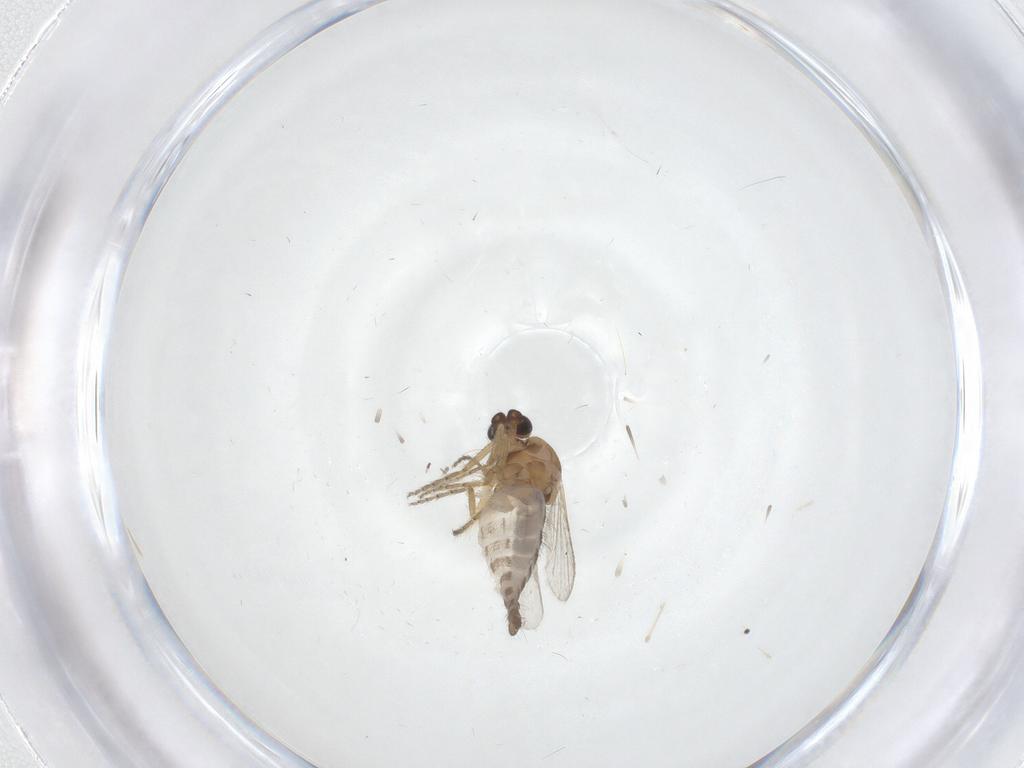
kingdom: Animalia
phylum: Arthropoda
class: Insecta
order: Diptera
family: Ceratopogonidae
